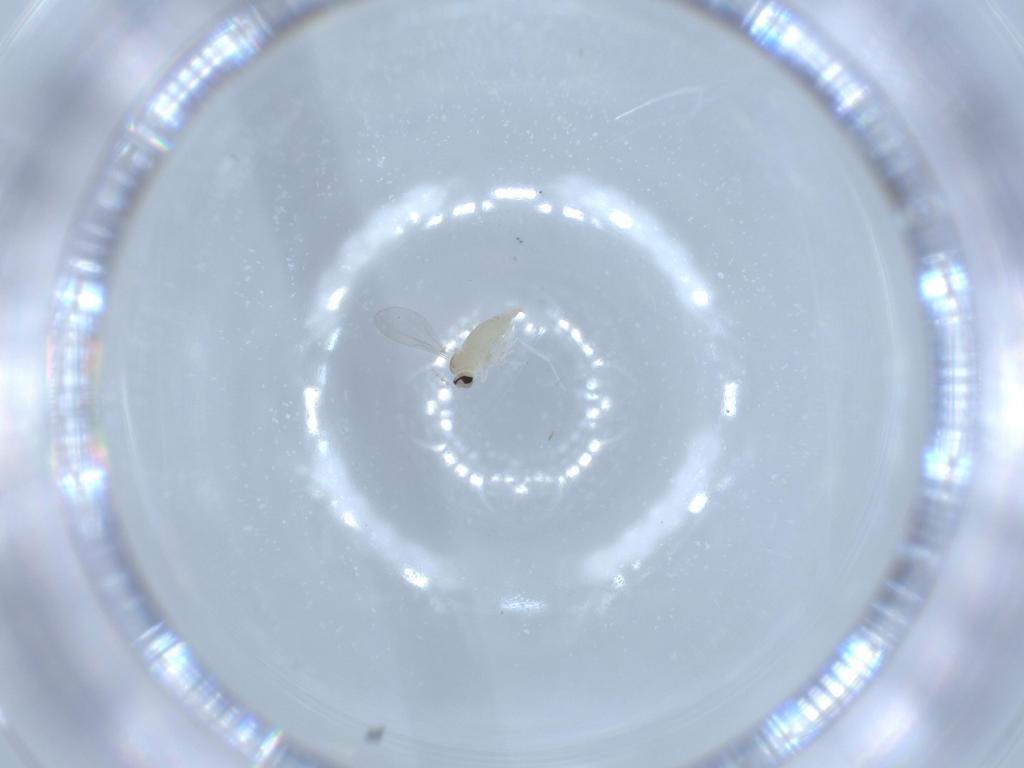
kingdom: Animalia
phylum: Arthropoda
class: Insecta
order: Diptera
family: Cecidomyiidae
